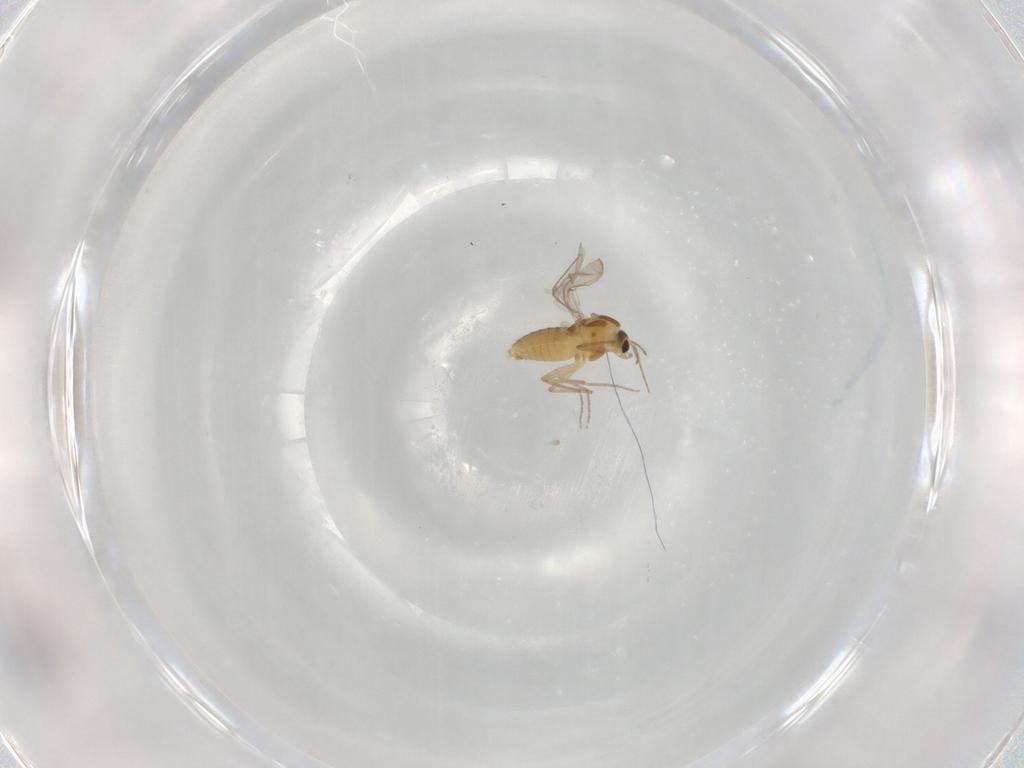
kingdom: Animalia
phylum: Arthropoda
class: Insecta
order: Diptera
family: Chironomidae
